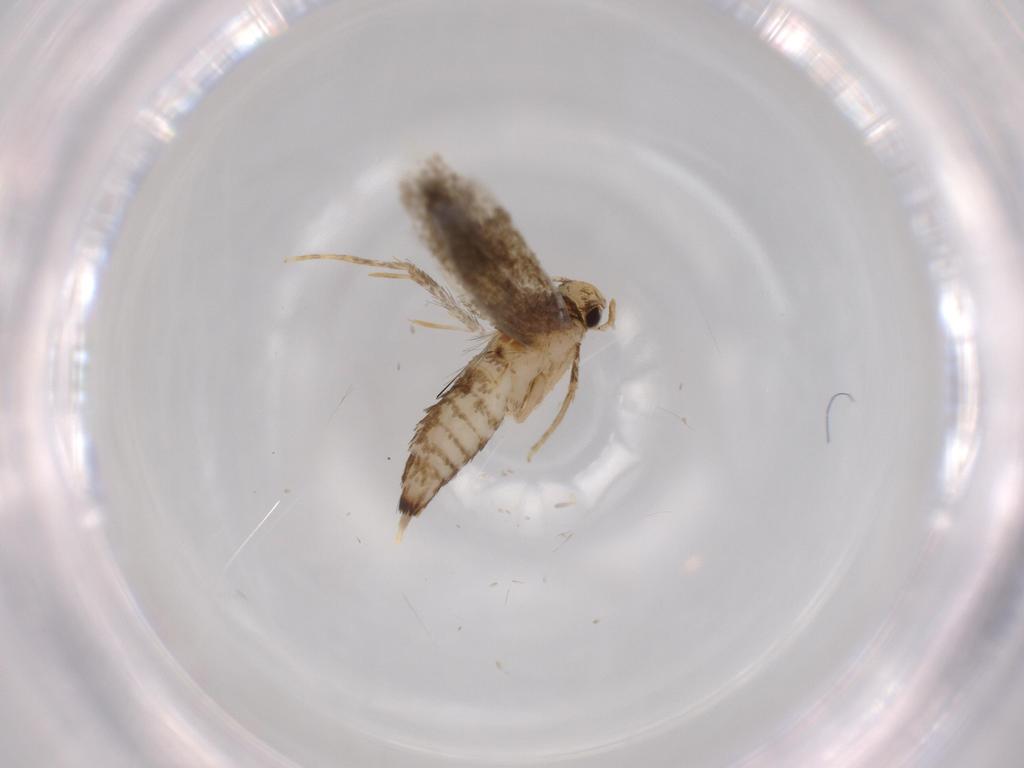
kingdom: Animalia
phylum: Arthropoda
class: Insecta
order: Lepidoptera
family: Tineidae
